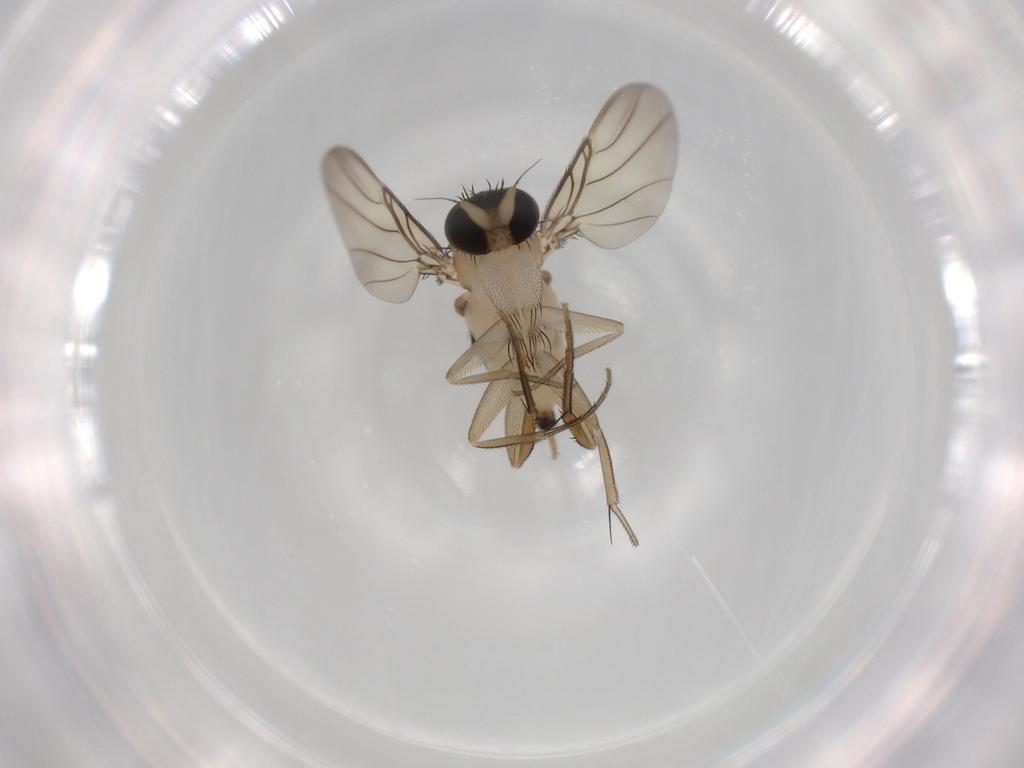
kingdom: Animalia
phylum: Arthropoda
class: Insecta
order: Diptera
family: Phoridae
